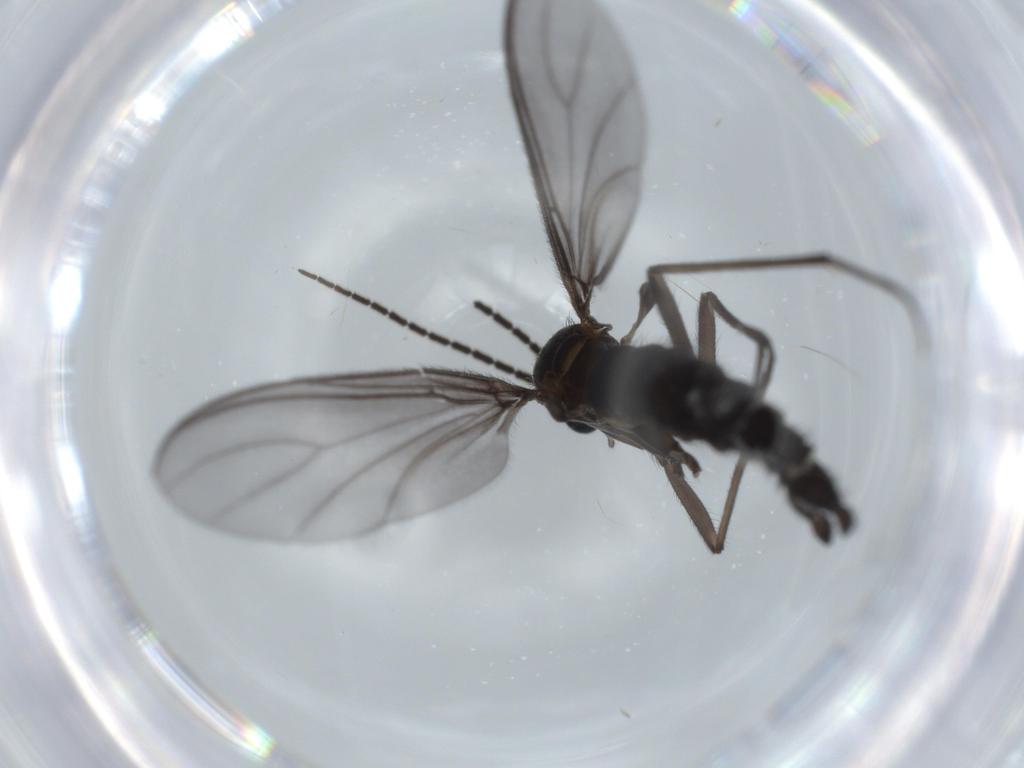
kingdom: Animalia
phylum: Arthropoda
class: Insecta
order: Diptera
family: Cecidomyiidae
